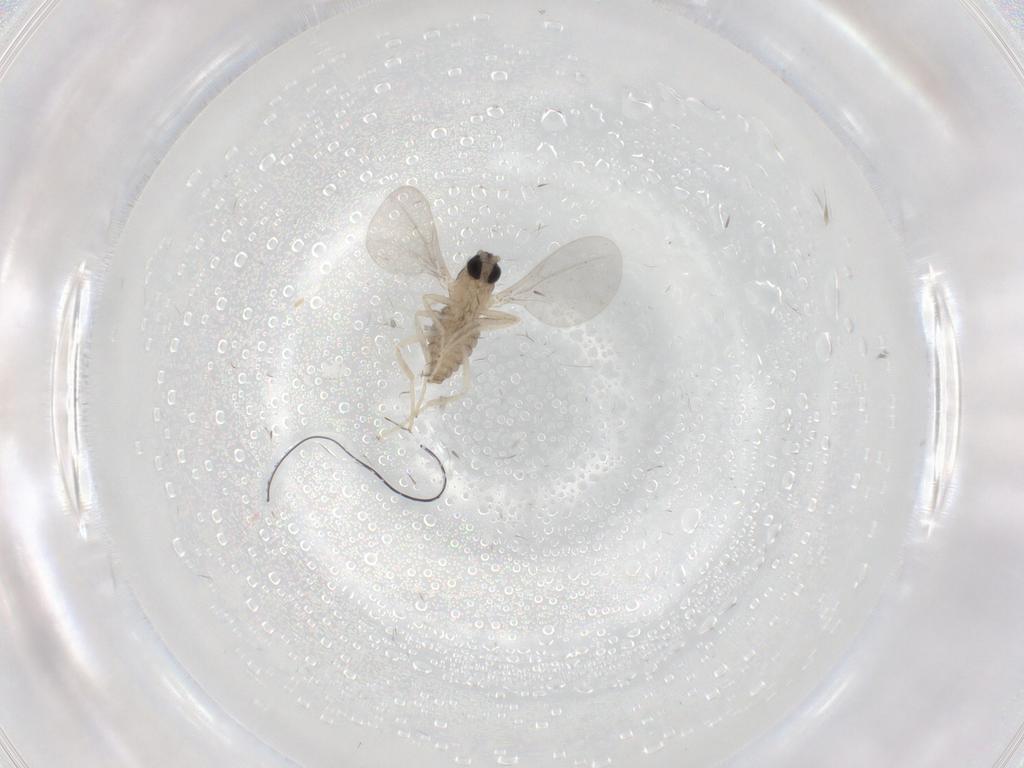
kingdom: Animalia
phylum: Arthropoda
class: Insecta
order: Diptera
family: Cecidomyiidae
